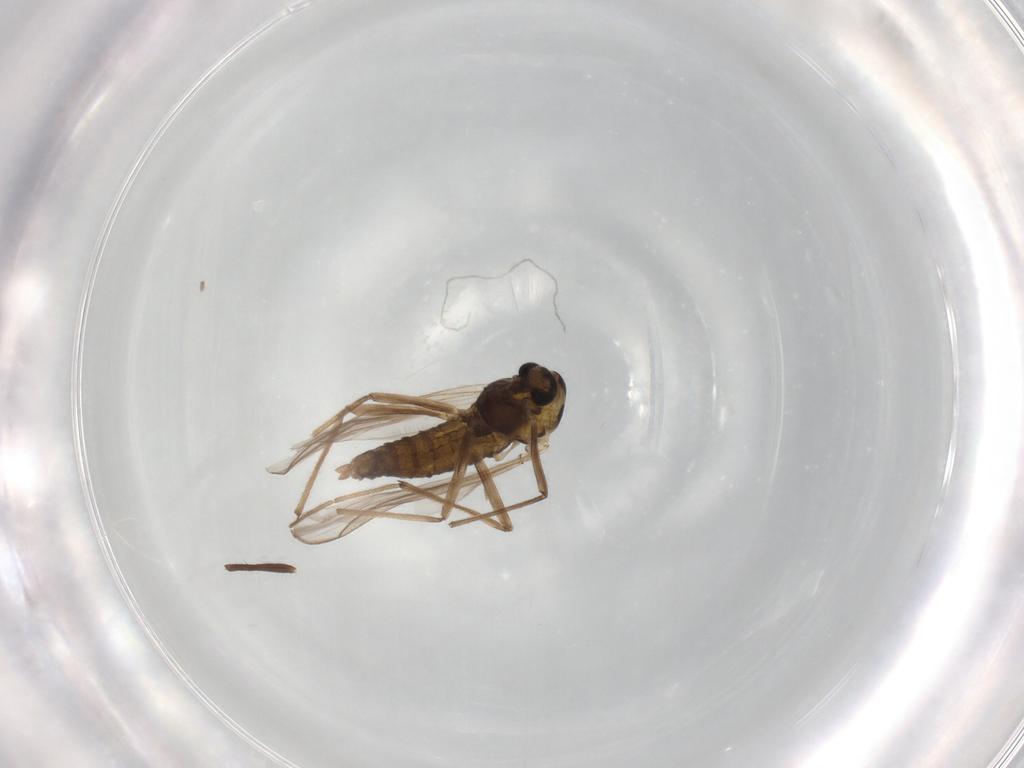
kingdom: Animalia
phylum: Arthropoda
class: Insecta
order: Diptera
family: Chironomidae
